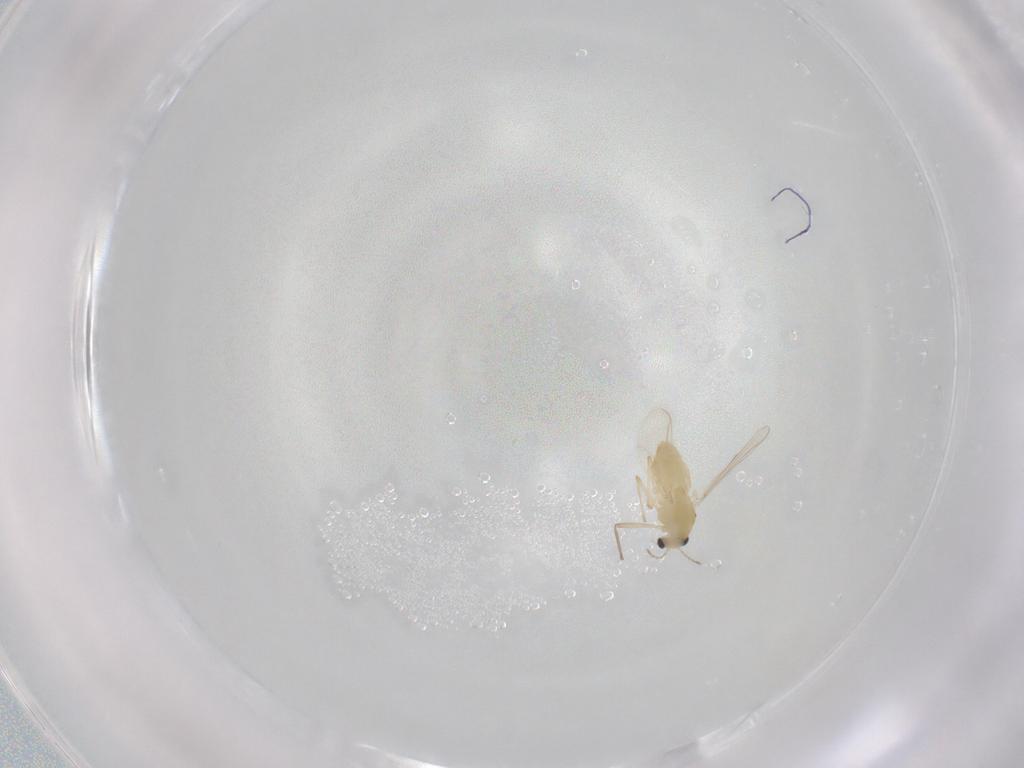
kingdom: Animalia
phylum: Arthropoda
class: Insecta
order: Diptera
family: Chironomidae
